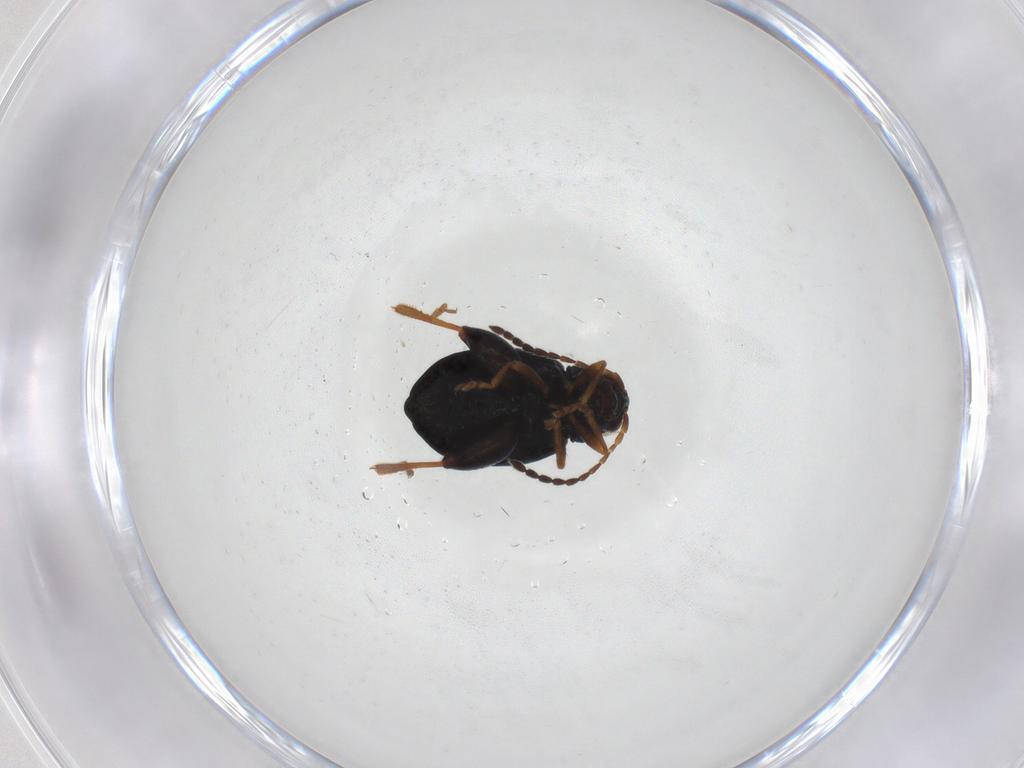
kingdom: Animalia
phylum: Arthropoda
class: Insecta
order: Coleoptera
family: Chrysomelidae
